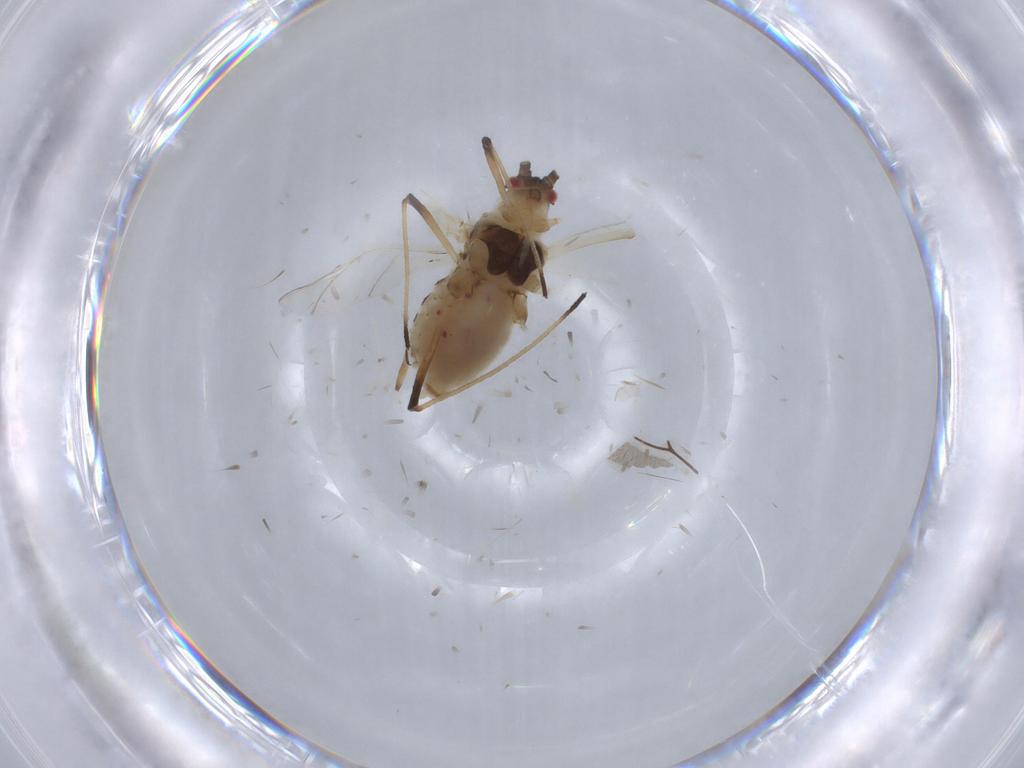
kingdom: Animalia
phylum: Arthropoda
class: Insecta
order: Hemiptera
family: Aphididae
